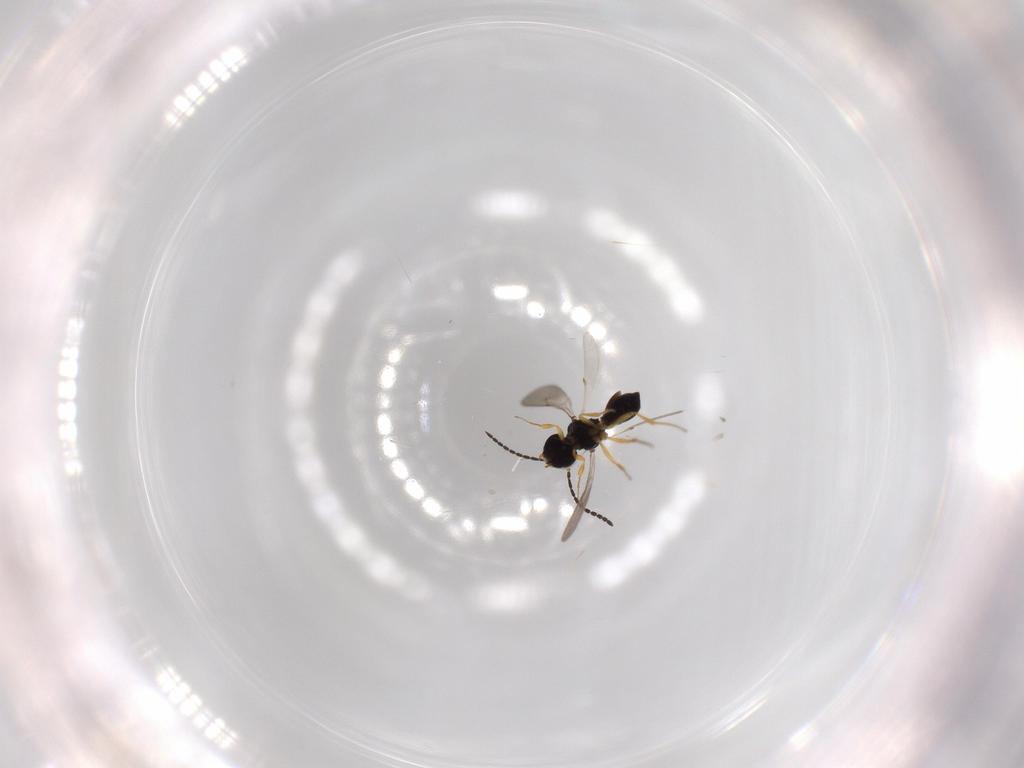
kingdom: Animalia
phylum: Arthropoda
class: Insecta
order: Hymenoptera
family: Scelionidae
